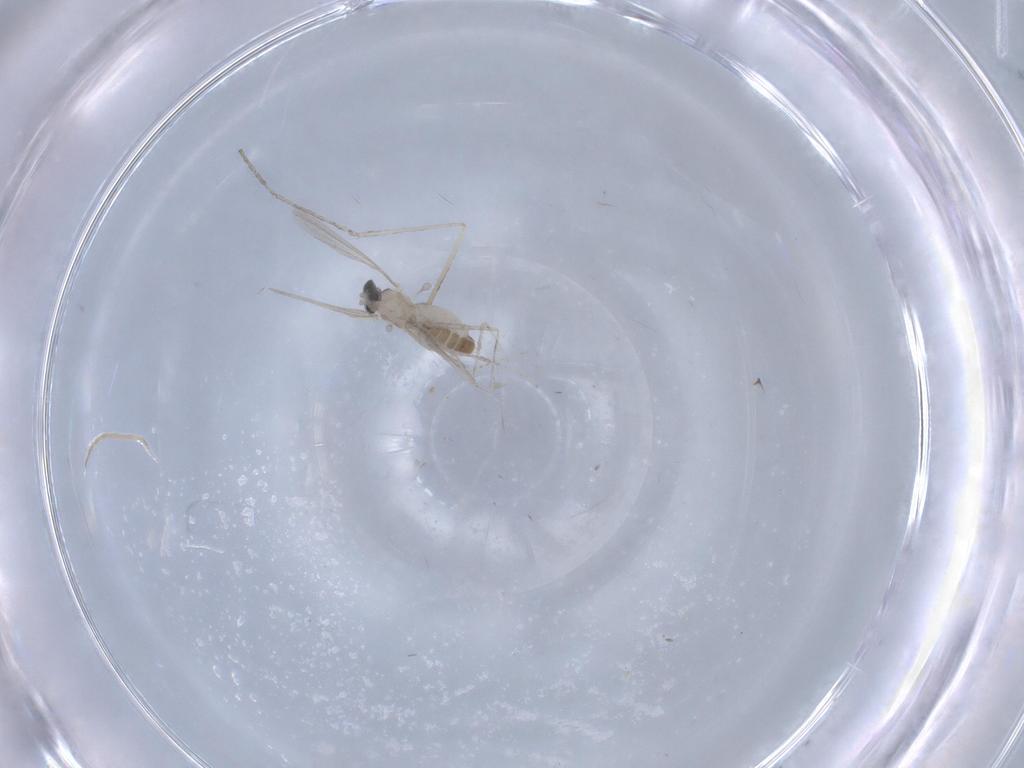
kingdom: Animalia
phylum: Arthropoda
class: Insecta
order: Diptera
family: Cecidomyiidae
